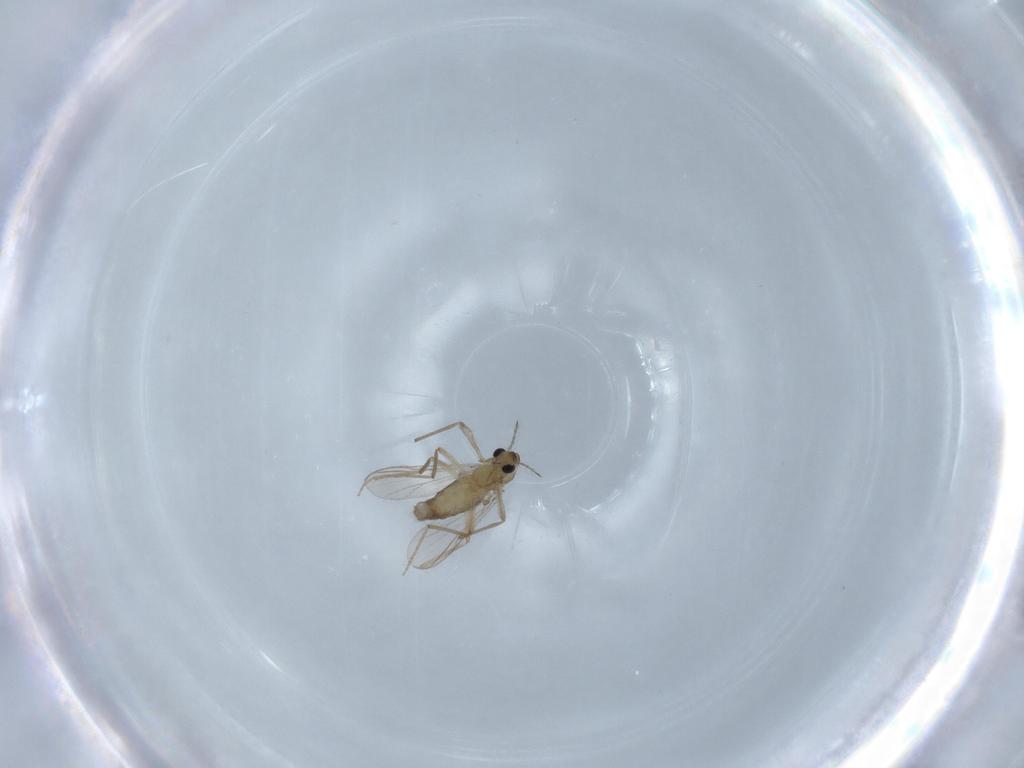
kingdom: Animalia
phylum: Arthropoda
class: Insecta
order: Diptera
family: Chironomidae
